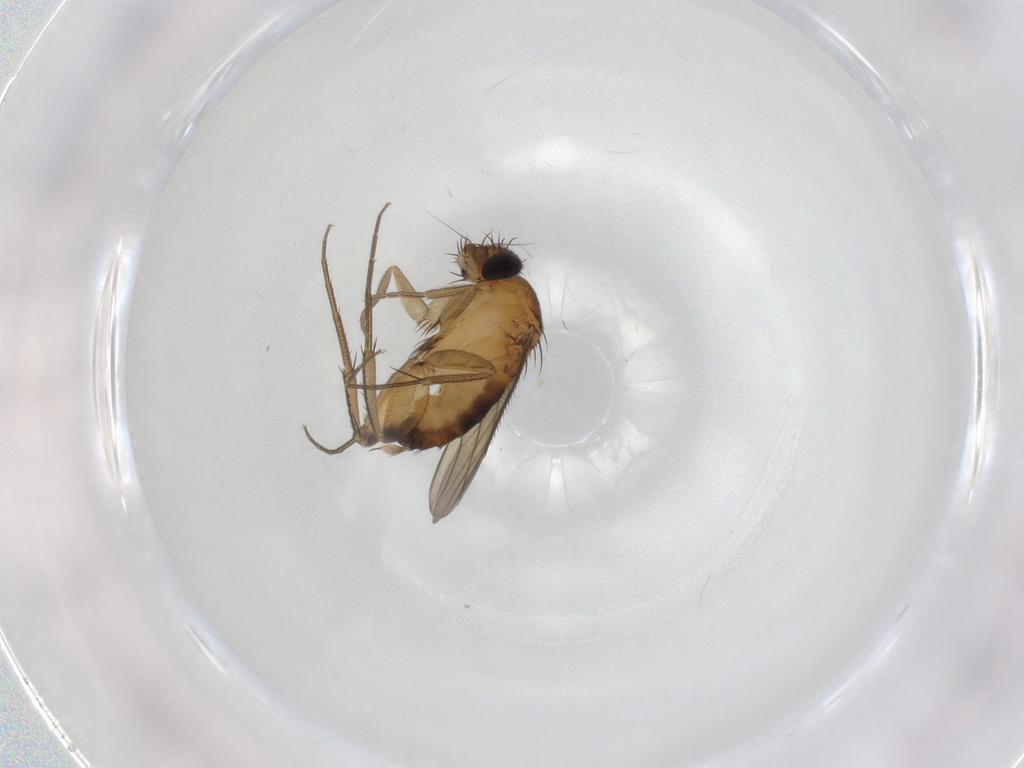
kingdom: Animalia
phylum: Arthropoda
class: Insecta
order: Diptera
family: Phoridae
